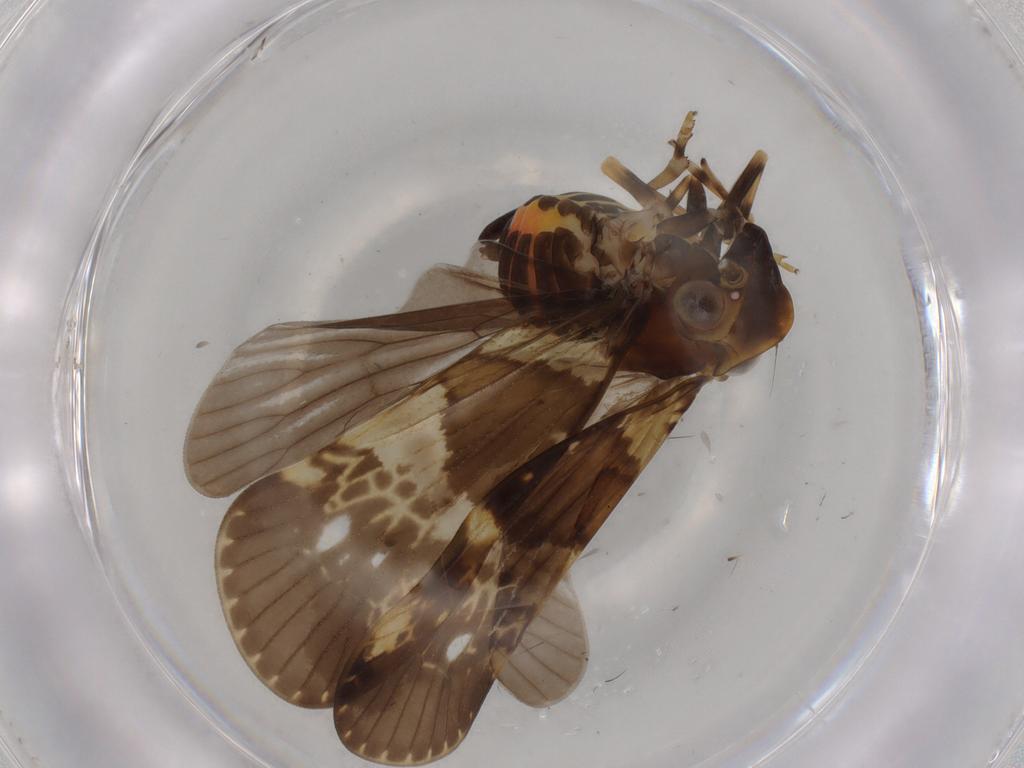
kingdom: Animalia
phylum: Arthropoda
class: Insecta
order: Hemiptera
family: Cixiidae
